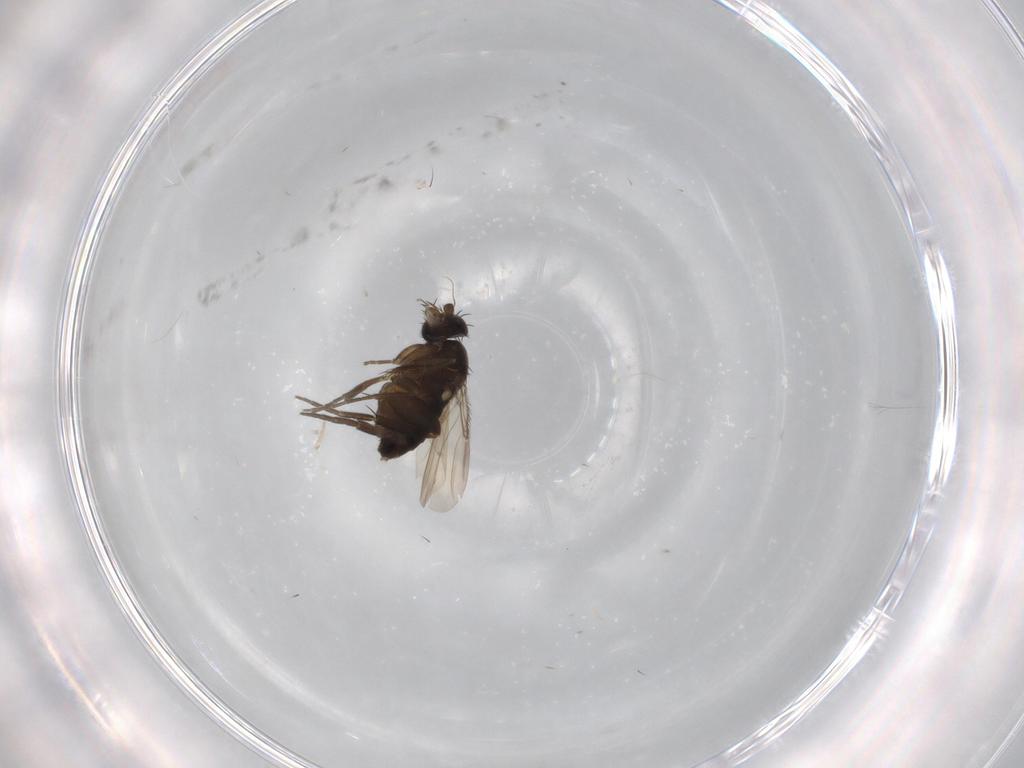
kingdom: Animalia
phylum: Arthropoda
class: Insecta
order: Diptera
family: Phoridae
